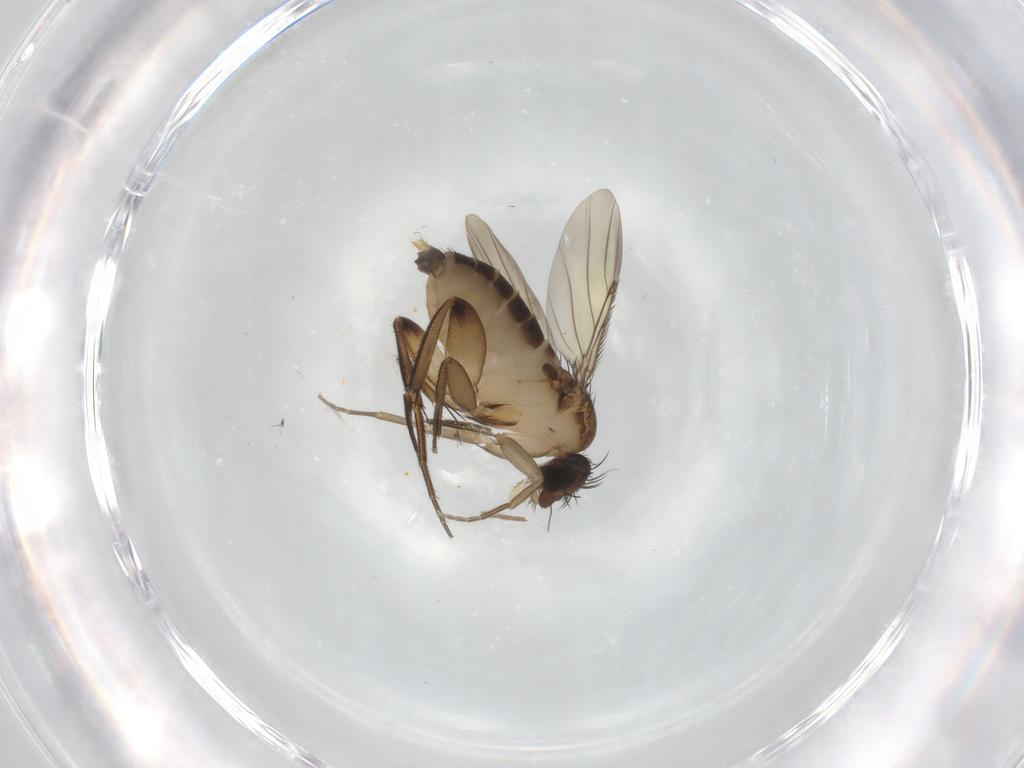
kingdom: Animalia
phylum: Arthropoda
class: Insecta
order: Diptera
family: Phoridae
